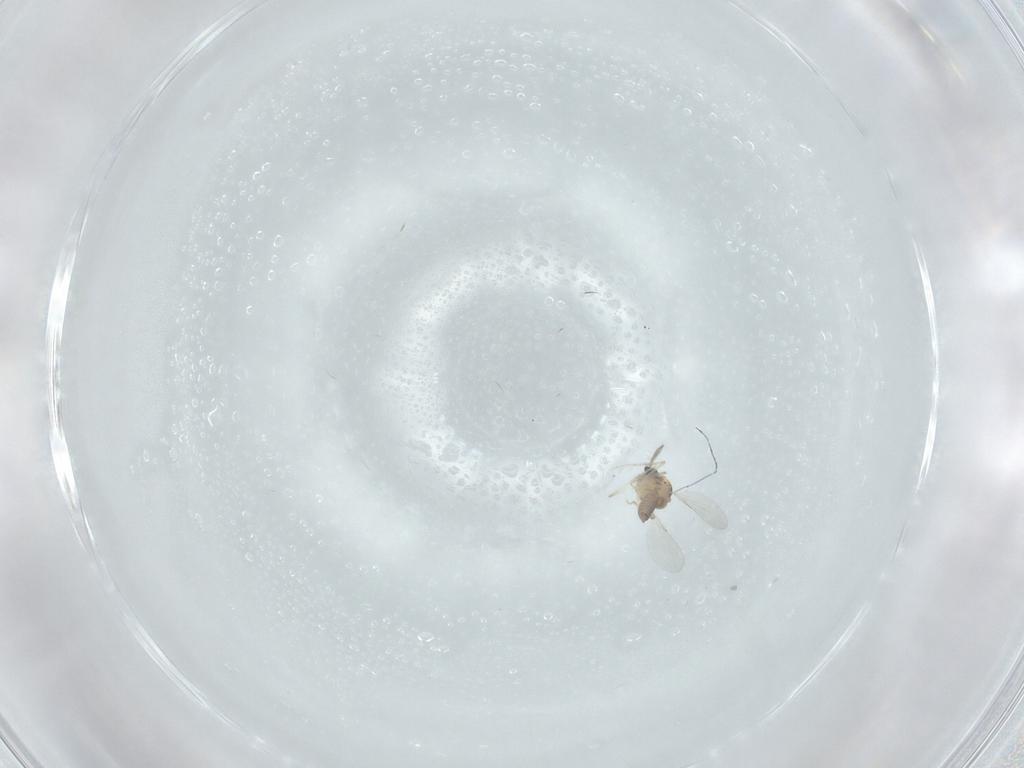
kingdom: Animalia
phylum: Arthropoda
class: Insecta
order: Diptera
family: Ceratopogonidae
